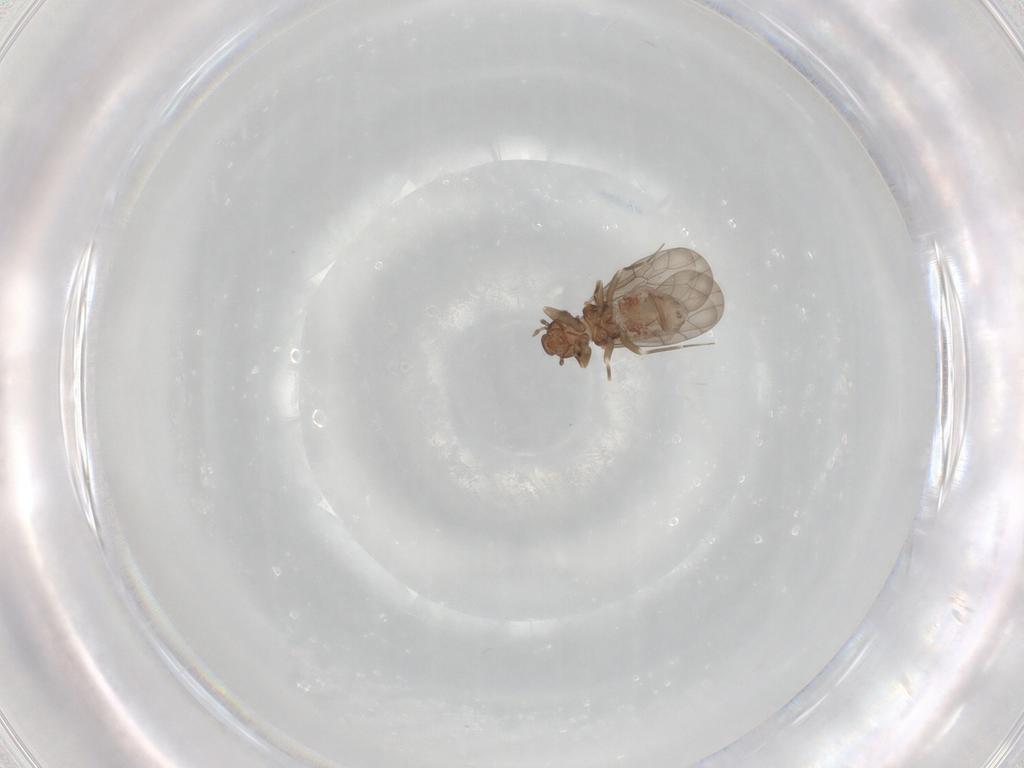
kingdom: Animalia
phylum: Arthropoda
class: Insecta
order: Psocodea
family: Lepidopsocidae
